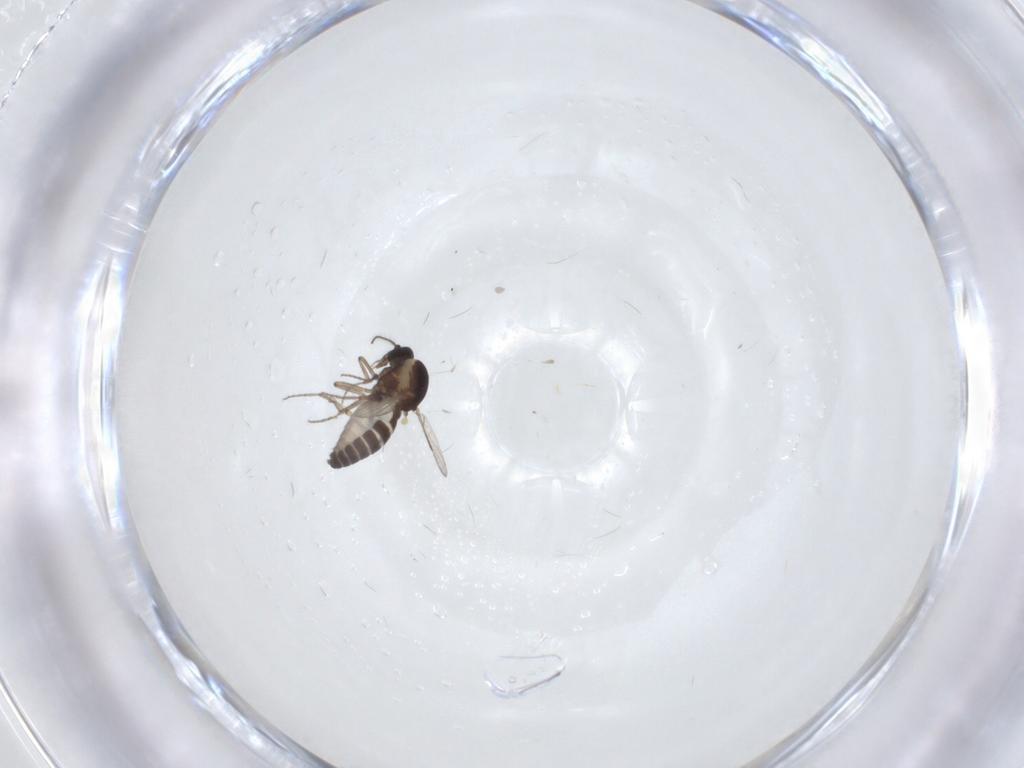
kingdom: Animalia
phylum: Arthropoda
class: Insecta
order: Diptera
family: Ceratopogonidae
